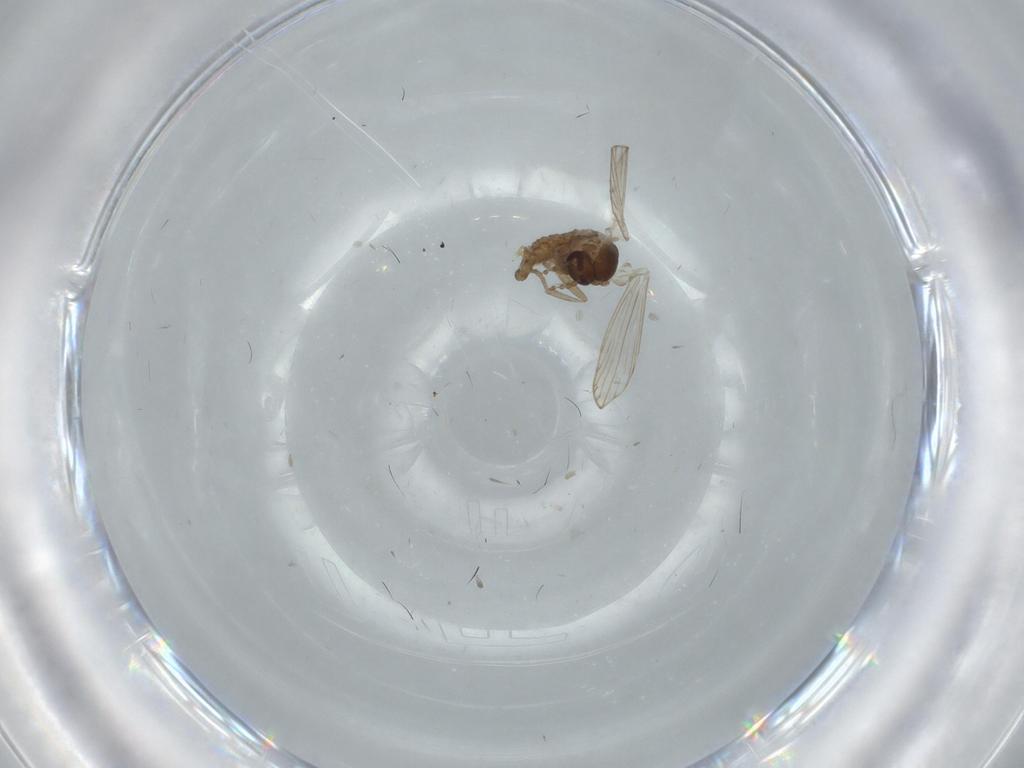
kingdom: Animalia
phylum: Arthropoda
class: Insecta
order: Diptera
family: Psychodidae
